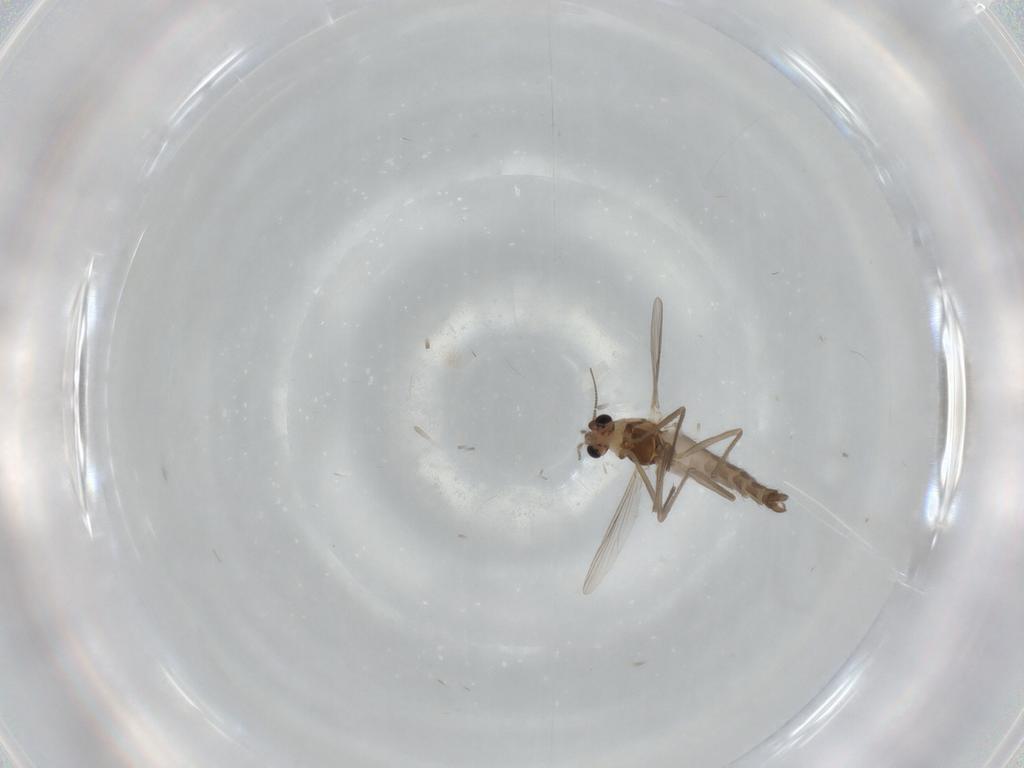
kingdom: Animalia
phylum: Arthropoda
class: Insecta
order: Diptera
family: Chironomidae
